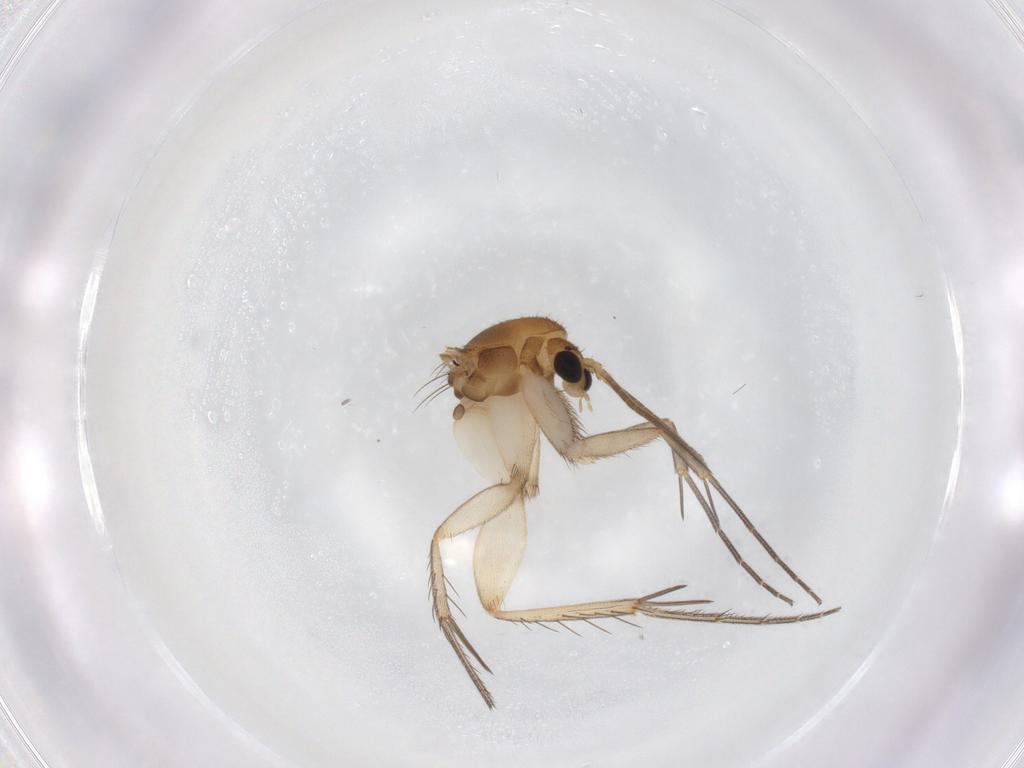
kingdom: Animalia
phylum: Arthropoda
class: Insecta
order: Diptera
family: Mycetophilidae
